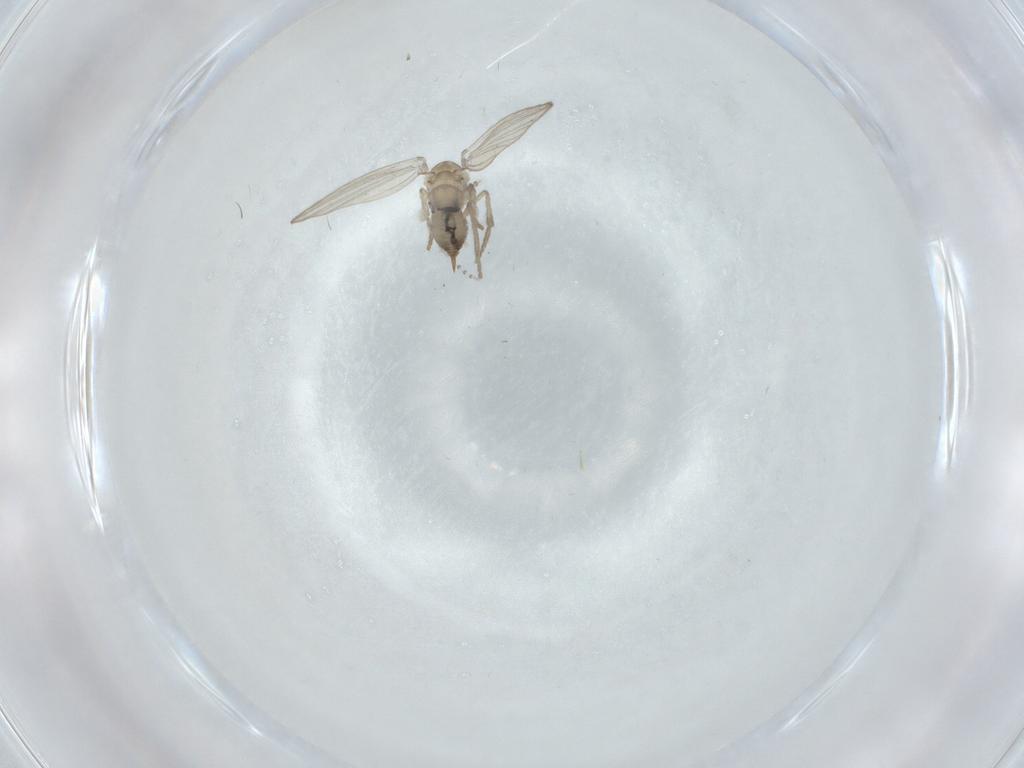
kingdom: Animalia
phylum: Arthropoda
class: Insecta
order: Diptera
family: Psychodidae
